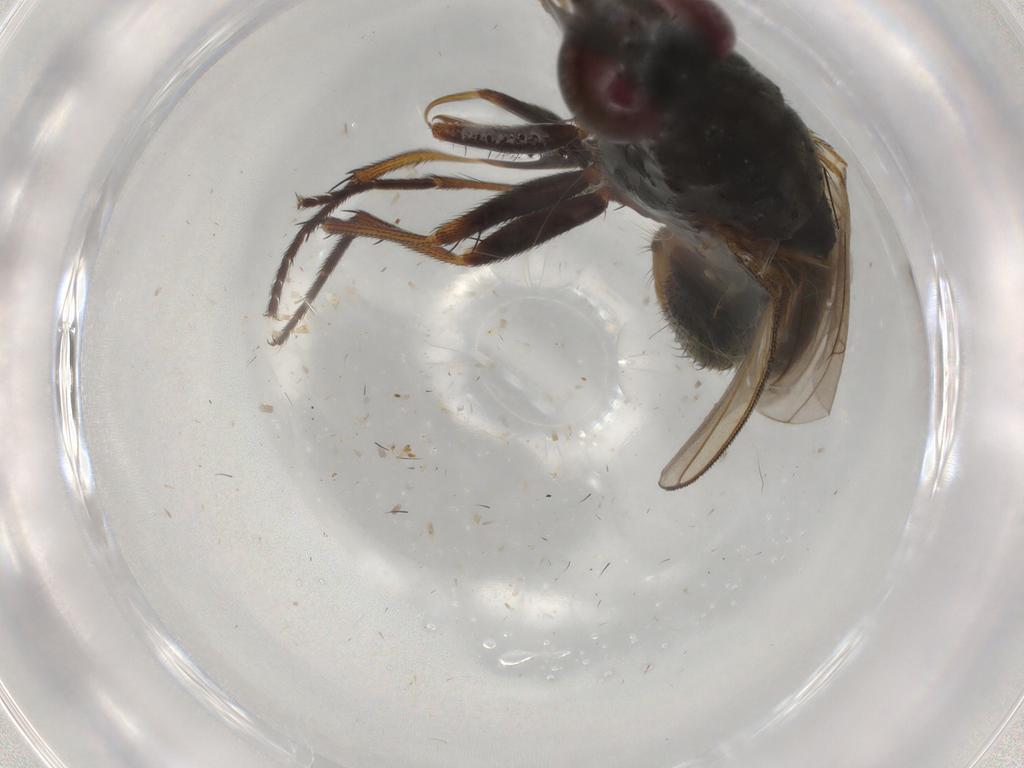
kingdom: Animalia
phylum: Arthropoda
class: Insecta
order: Diptera
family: Muscidae
